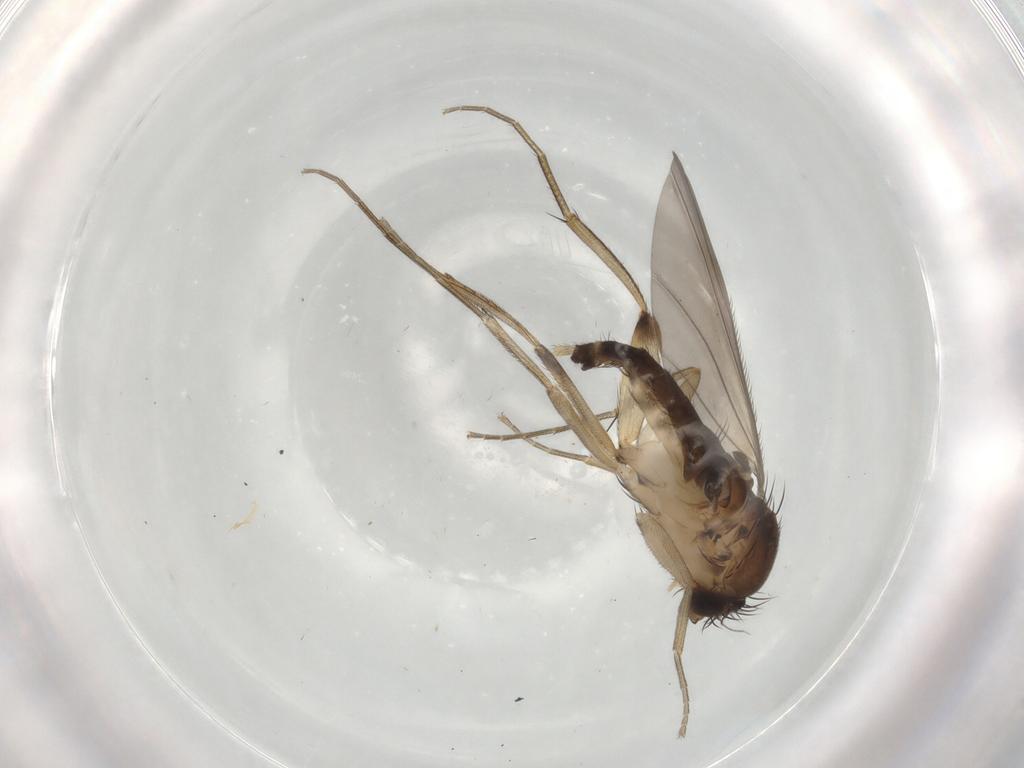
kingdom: Animalia
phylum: Arthropoda
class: Insecta
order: Diptera
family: Phoridae
